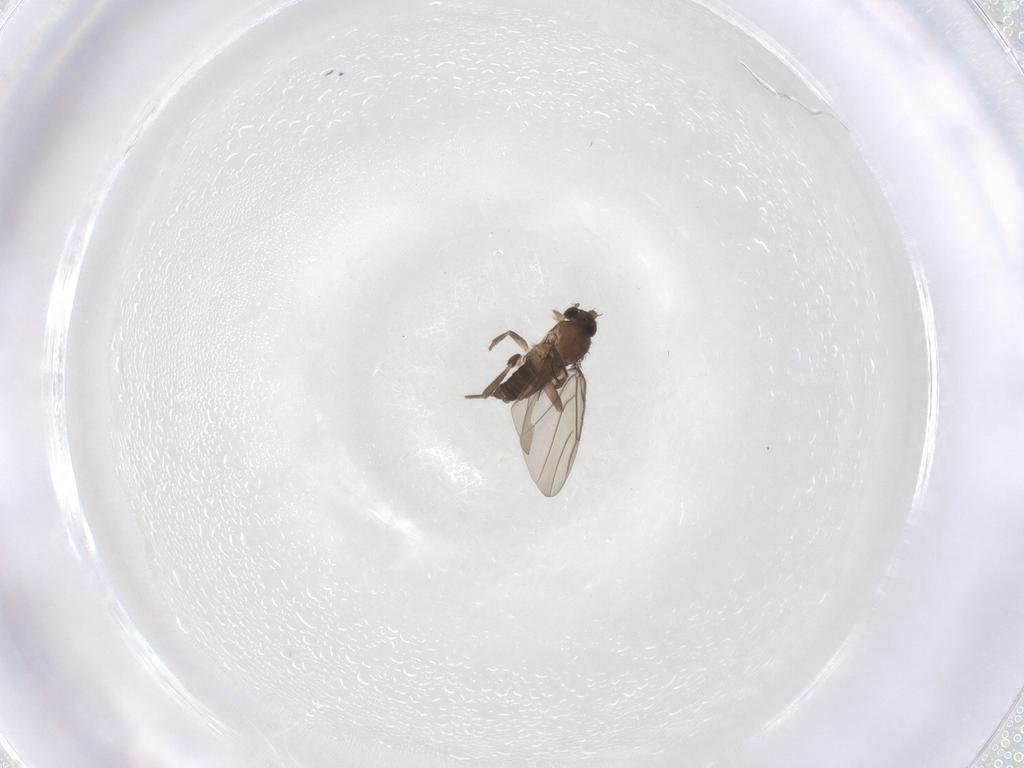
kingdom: Animalia
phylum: Arthropoda
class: Insecta
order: Diptera
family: Phoridae
